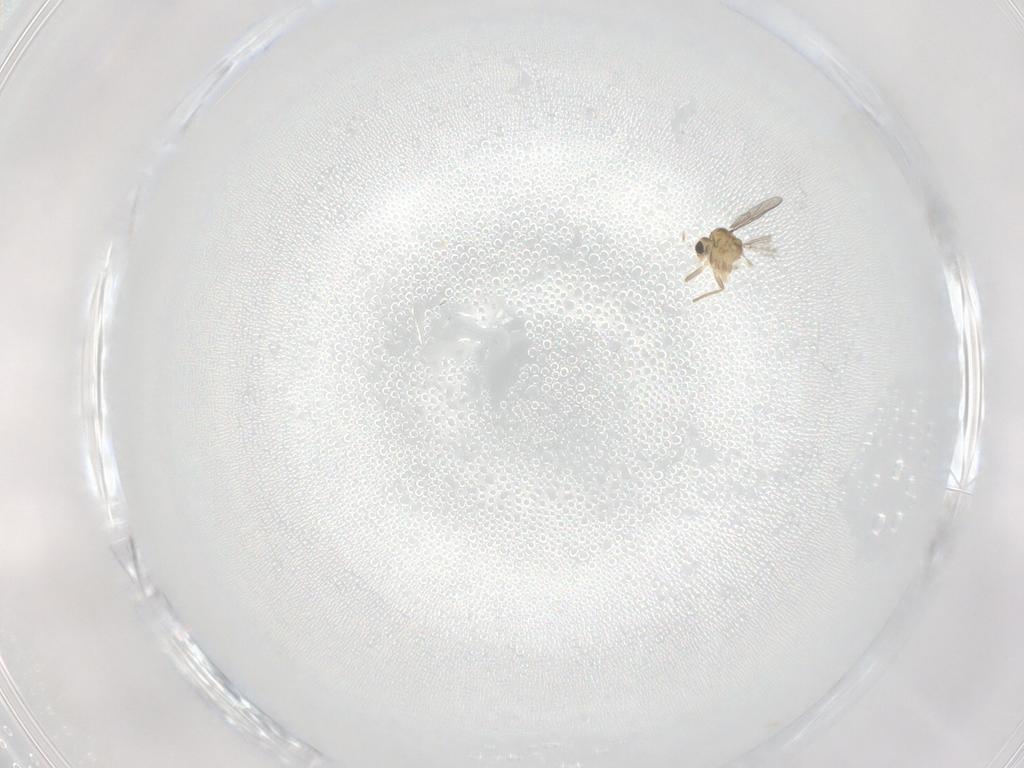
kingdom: Animalia
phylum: Arthropoda
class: Insecta
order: Diptera
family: Chironomidae
